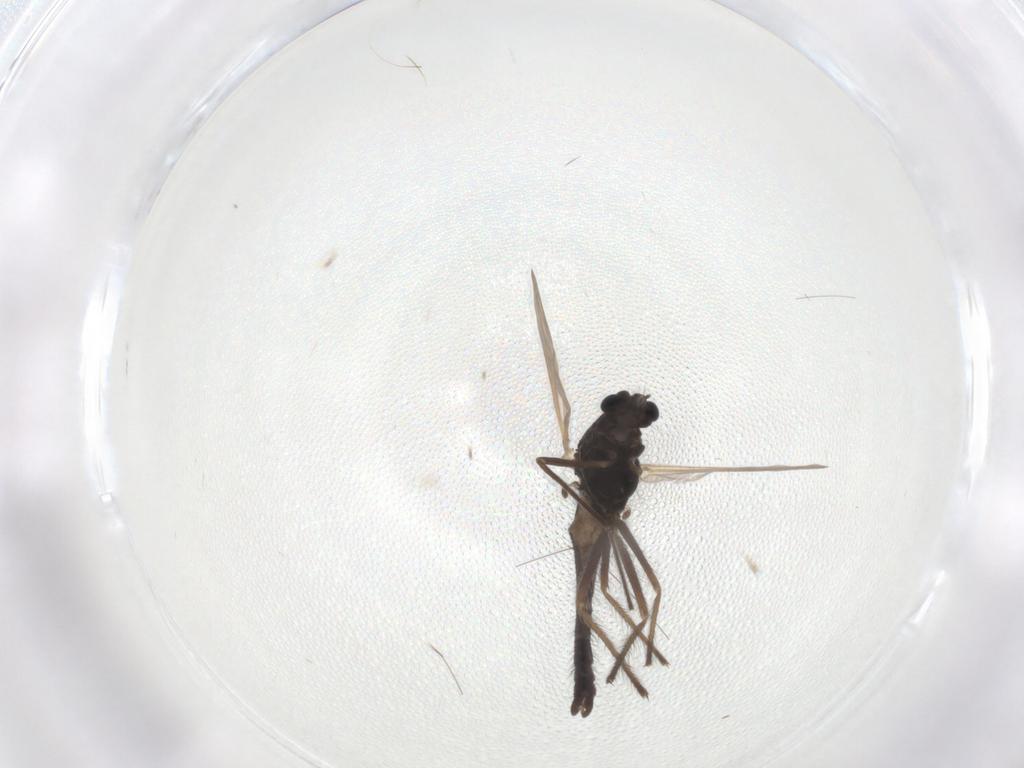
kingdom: Animalia
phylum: Arthropoda
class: Insecta
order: Diptera
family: Chironomidae
